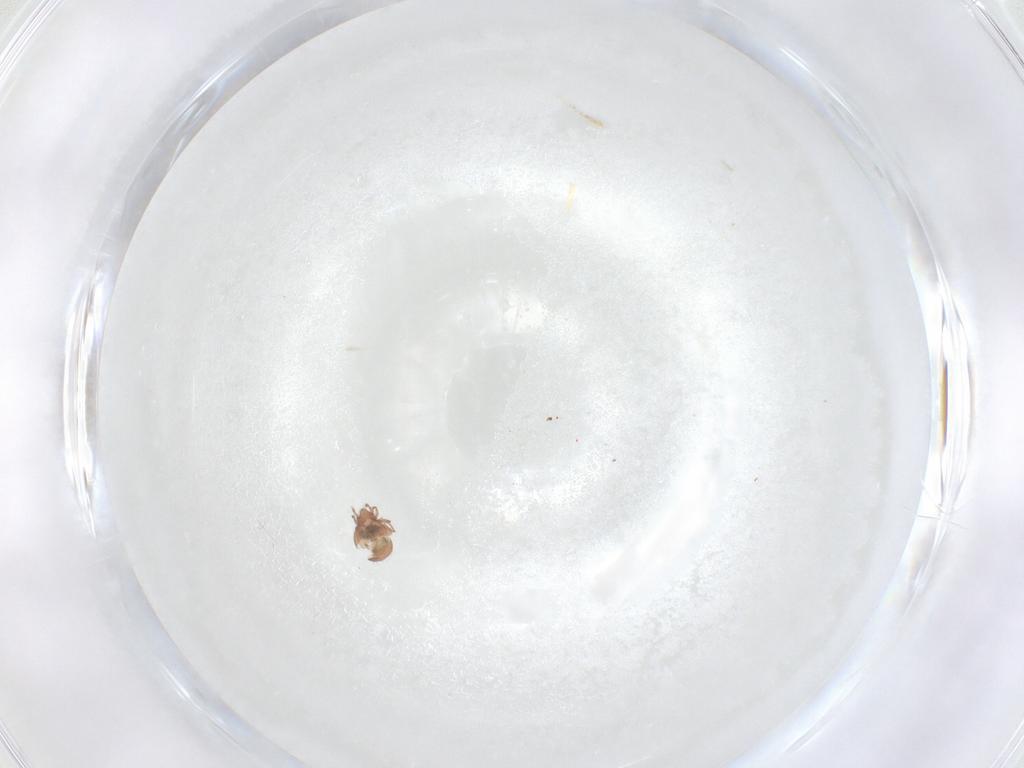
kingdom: Animalia
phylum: Arthropoda
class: Arachnida
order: Sarcoptiformes
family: Oribatulidae
